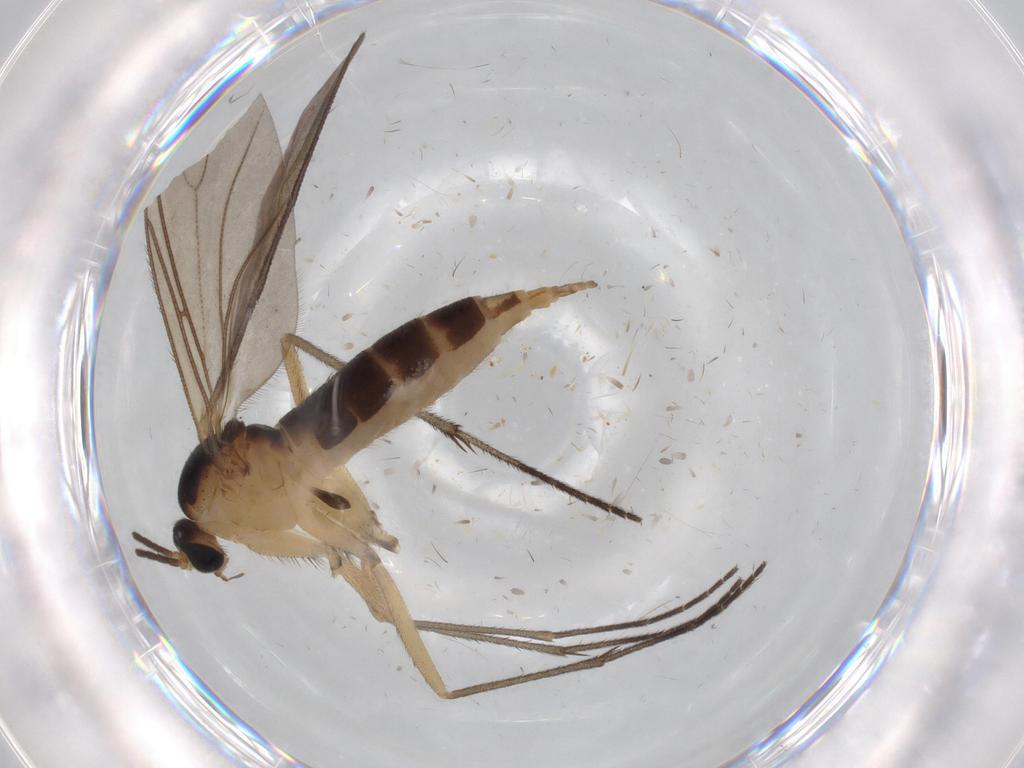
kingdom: Animalia
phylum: Arthropoda
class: Insecta
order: Diptera
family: Sciaridae
